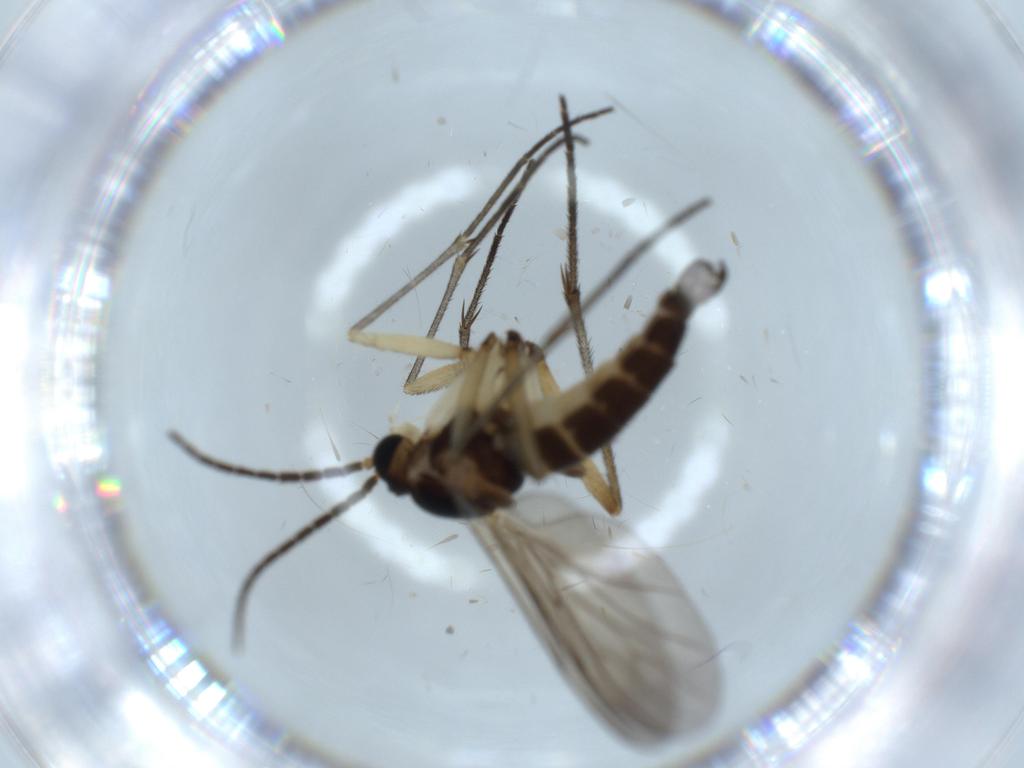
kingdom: Animalia
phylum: Arthropoda
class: Insecta
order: Diptera
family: Sciaridae
